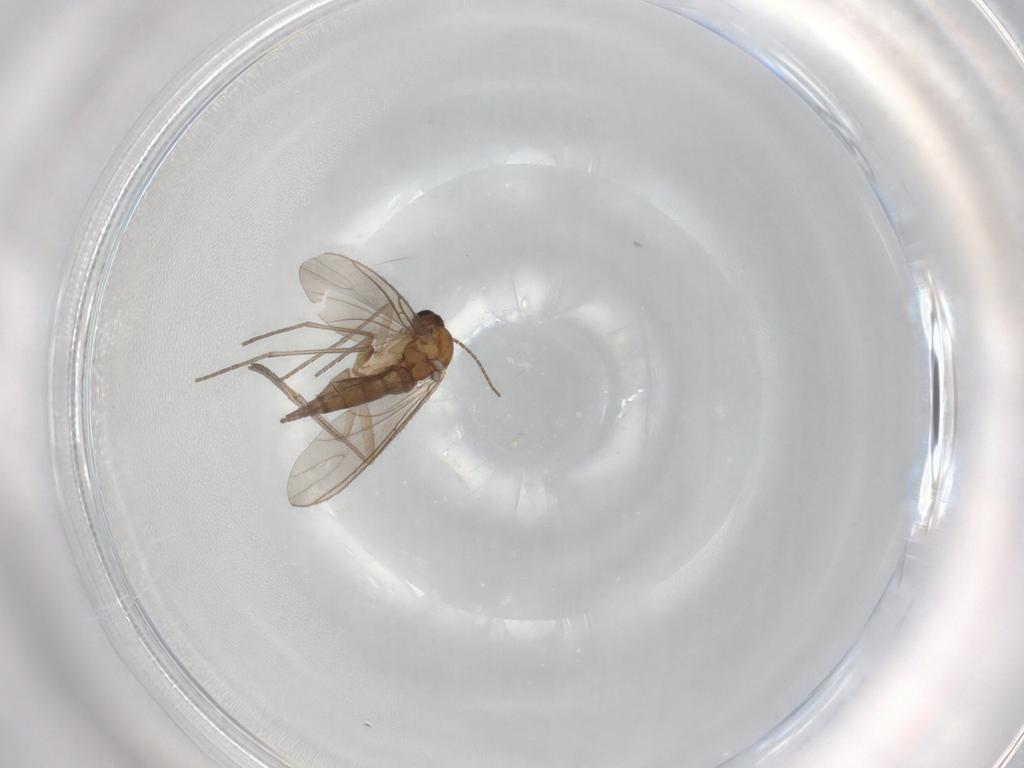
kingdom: Animalia
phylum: Arthropoda
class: Insecta
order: Diptera
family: Sciaridae
